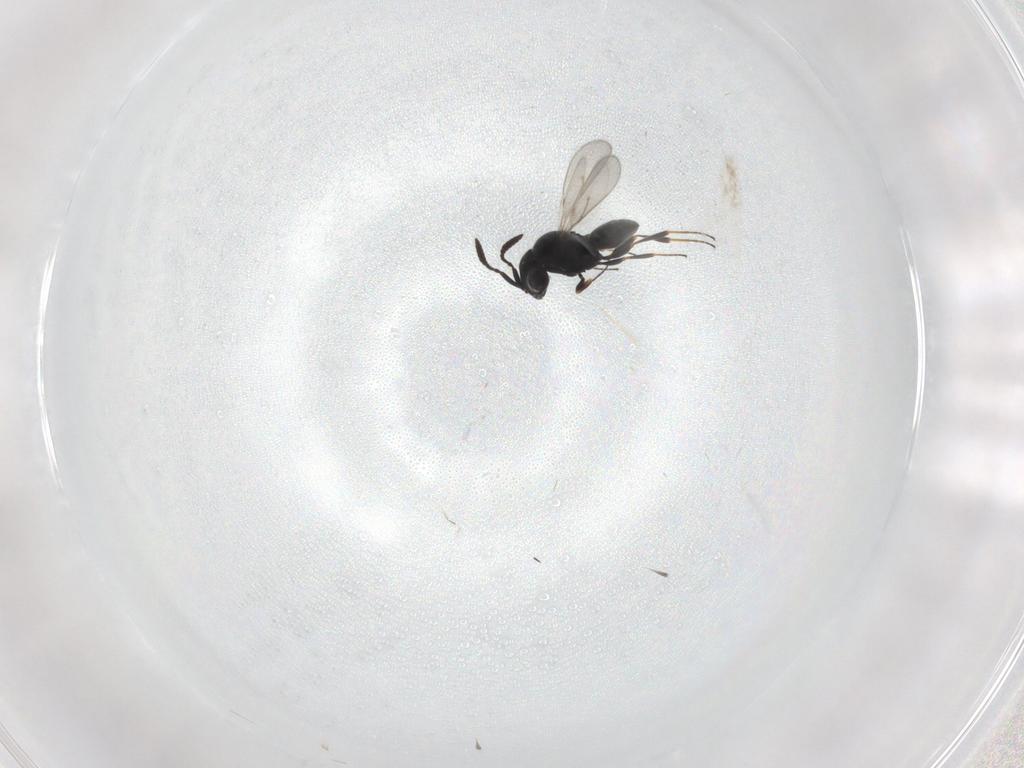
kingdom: Animalia
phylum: Arthropoda
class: Insecta
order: Hymenoptera
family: Scelionidae
